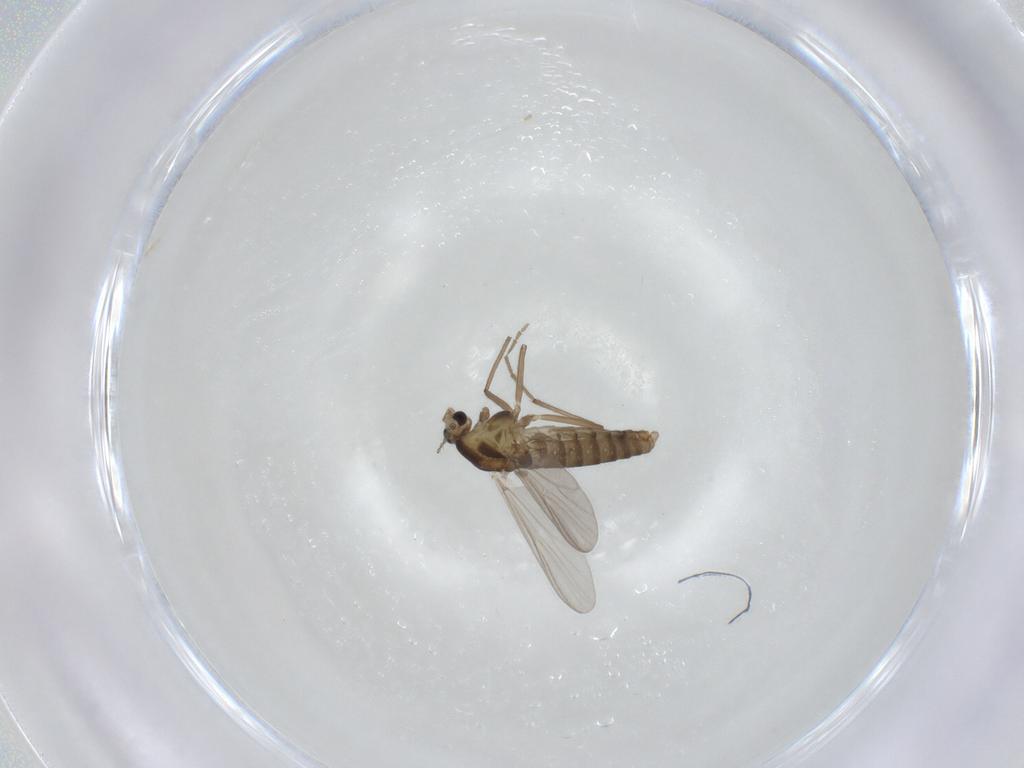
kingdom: Animalia
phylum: Arthropoda
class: Insecta
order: Diptera
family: Chironomidae
